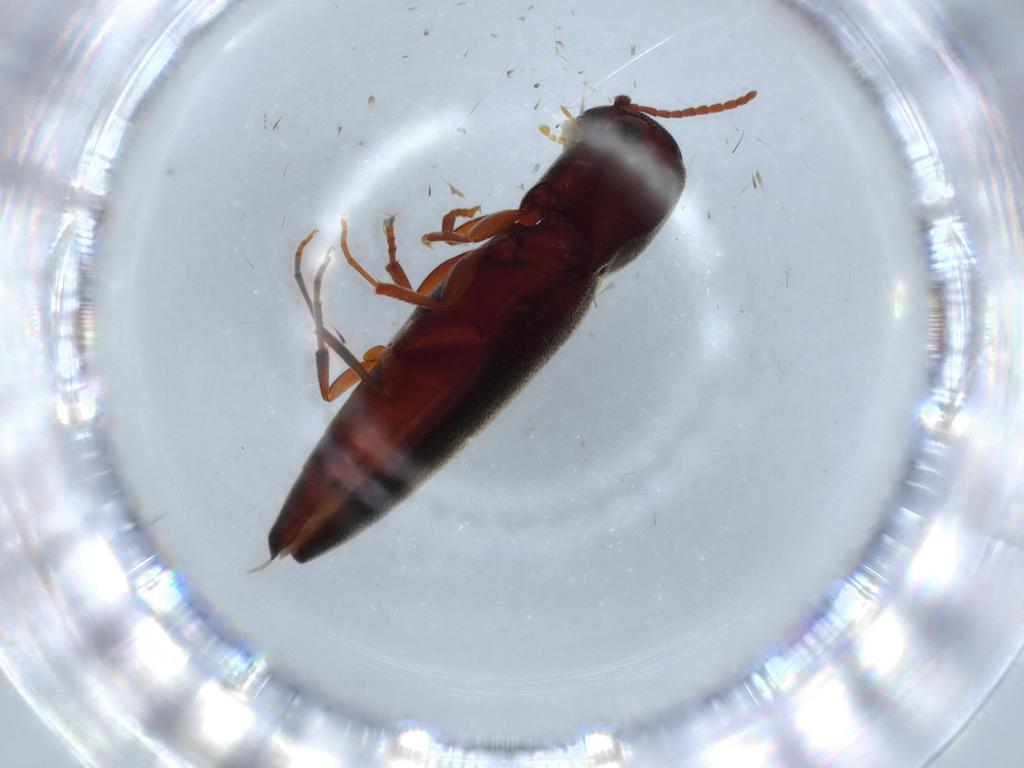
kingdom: Animalia
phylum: Arthropoda
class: Insecta
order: Coleoptera
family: Eucnemidae
